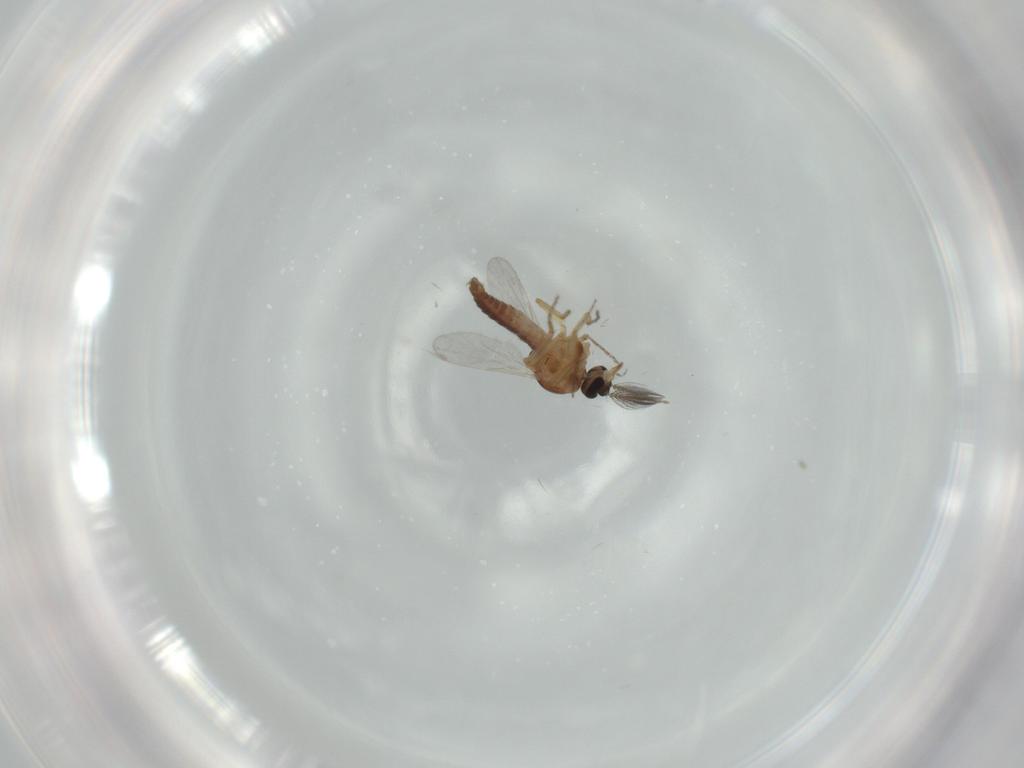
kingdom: Animalia
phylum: Arthropoda
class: Insecta
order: Diptera
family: Ceratopogonidae
